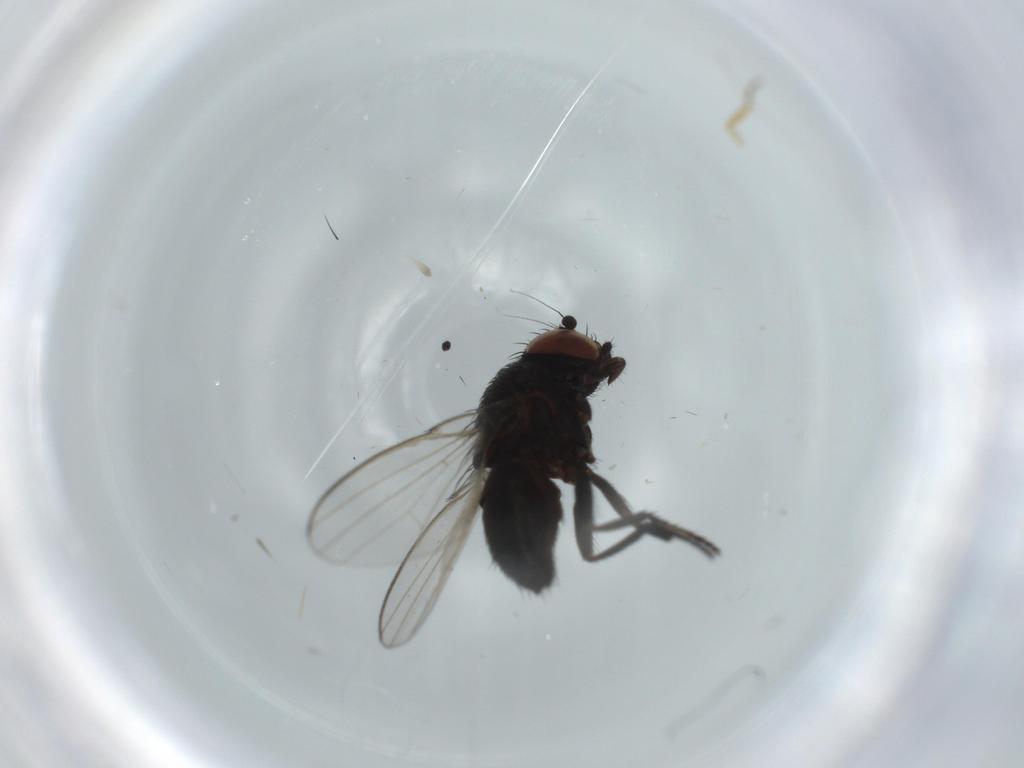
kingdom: Animalia
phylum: Arthropoda
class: Insecta
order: Diptera
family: Milichiidae
